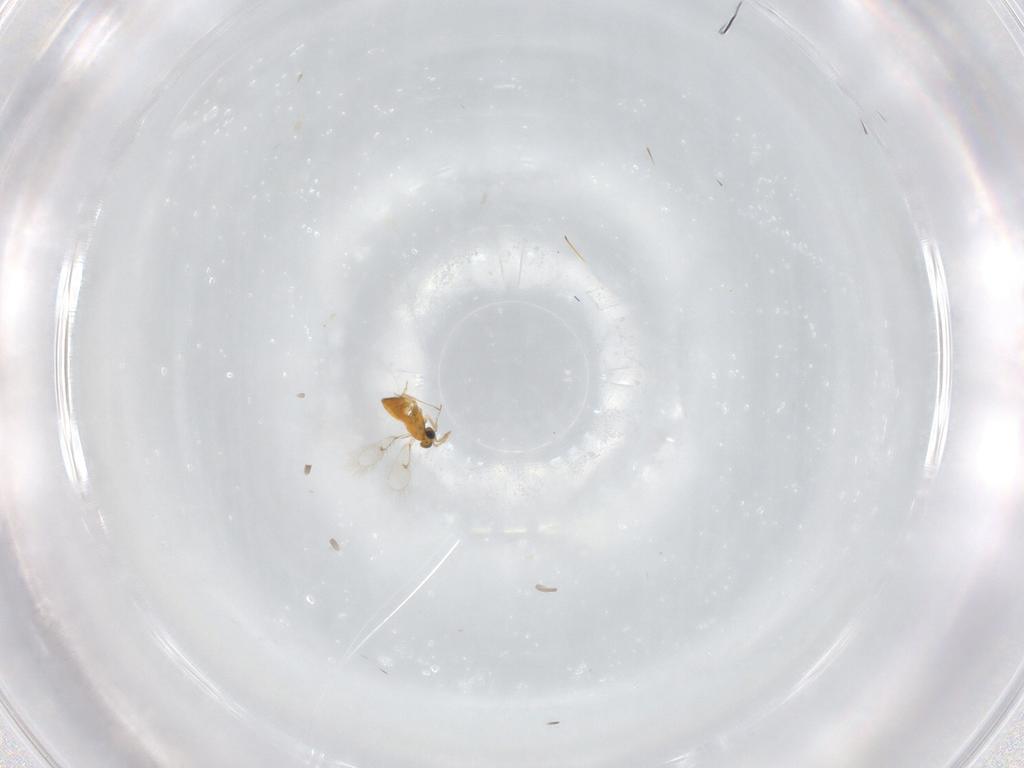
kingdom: Animalia
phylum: Arthropoda
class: Insecta
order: Hymenoptera
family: Trichogrammatidae
